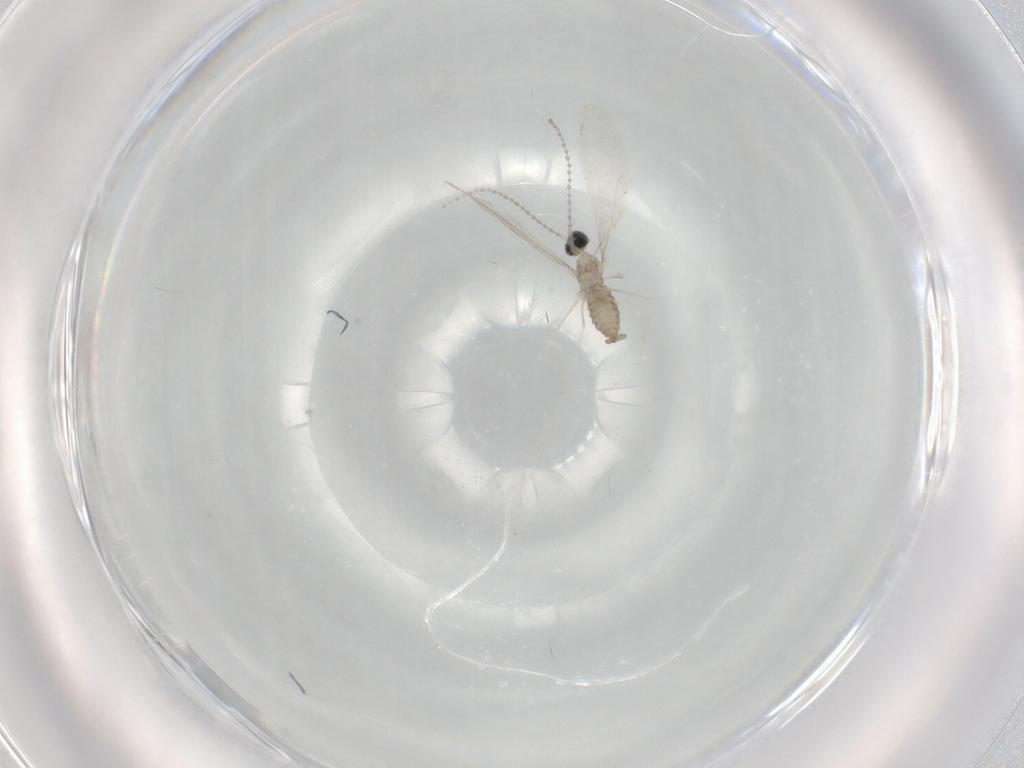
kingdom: Animalia
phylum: Arthropoda
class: Insecta
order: Diptera
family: Cecidomyiidae
